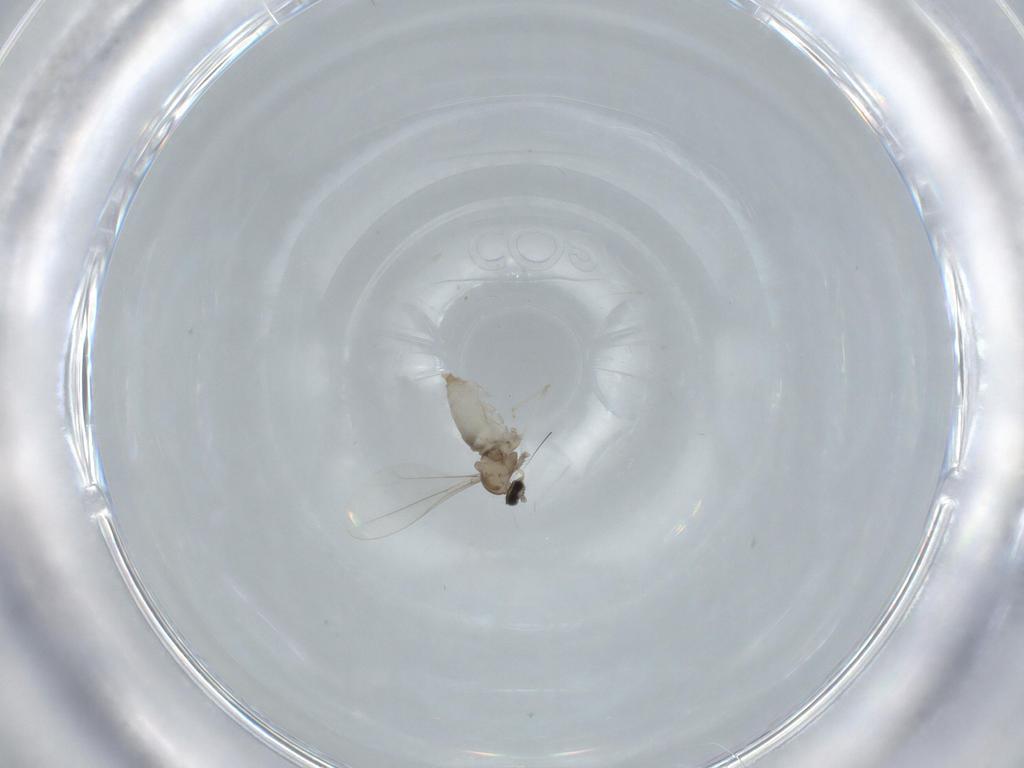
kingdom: Animalia
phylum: Arthropoda
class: Insecta
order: Diptera
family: Cecidomyiidae
